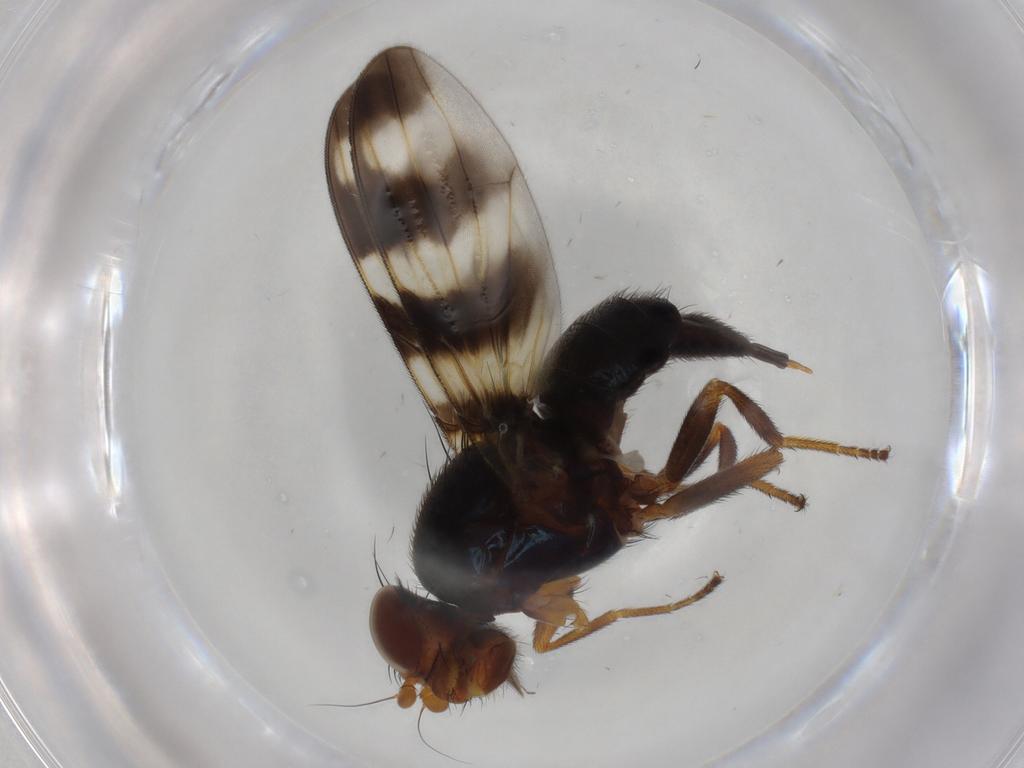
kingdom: Animalia
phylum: Arthropoda
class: Insecta
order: Diptera
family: Ulidiidae
